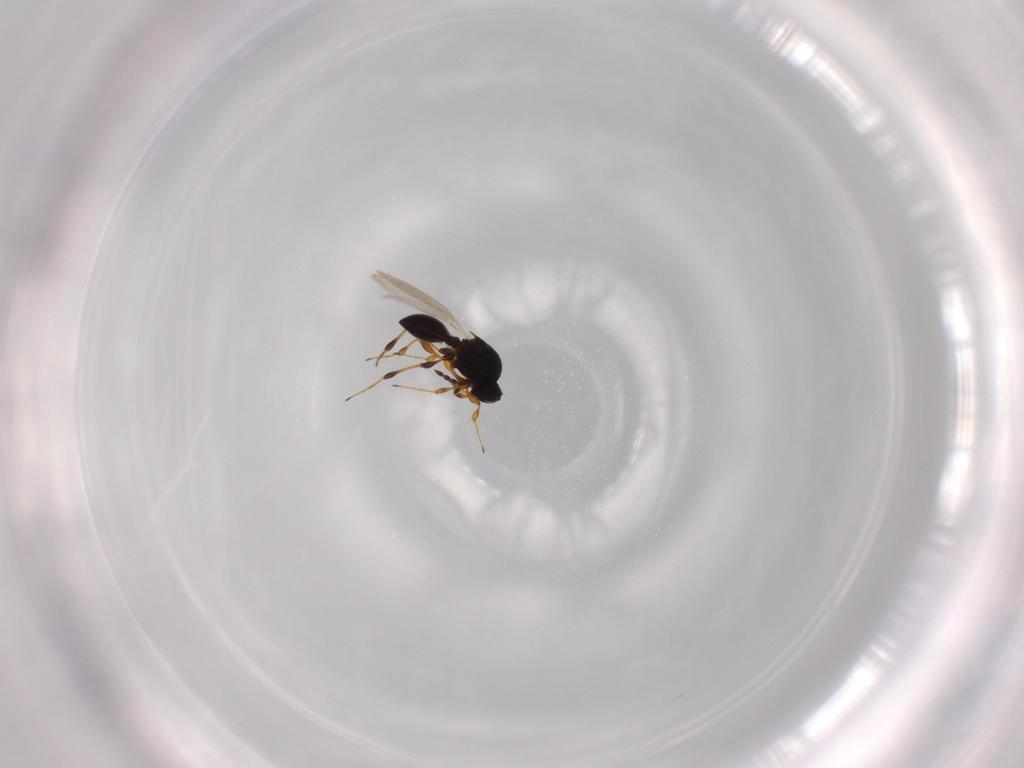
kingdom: Animalia
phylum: Arthropoda
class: Insecta
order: Hymenoptera
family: Platygastridae
